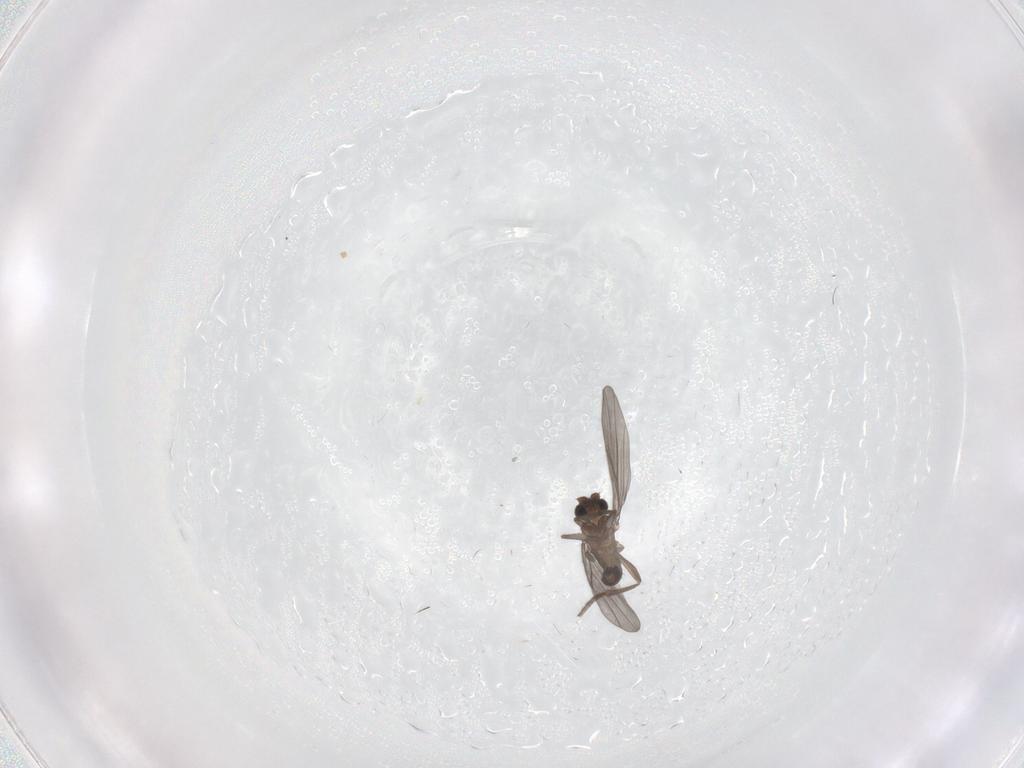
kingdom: Animalia
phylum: Arthropoda
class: Insecta
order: Diptera
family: Phoridae
